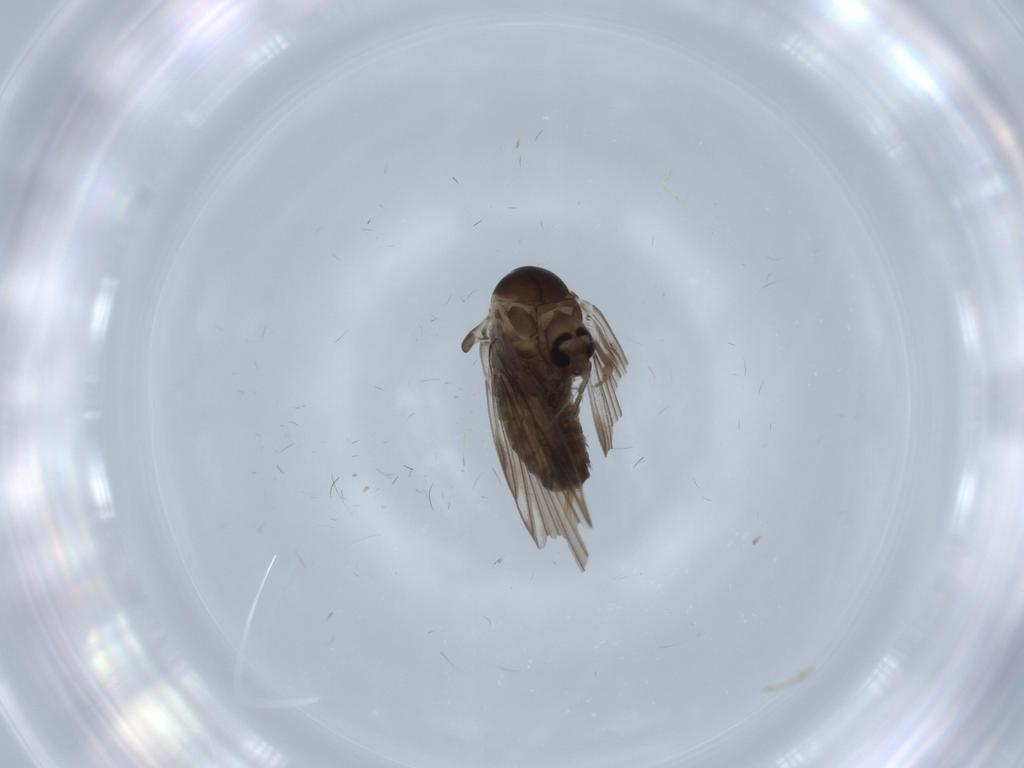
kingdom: Animalia
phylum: Arthropoda
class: Insecta
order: Diptera
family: Psychodidae
